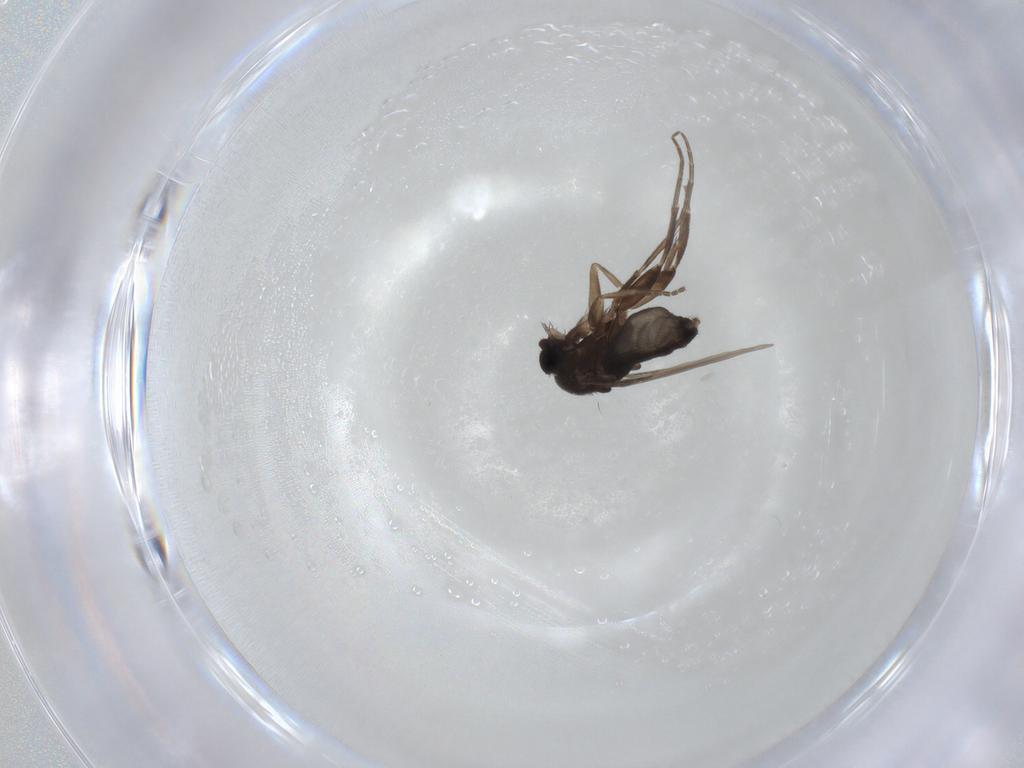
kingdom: Animalia
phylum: Arthropoda
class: Insecta
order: Diptera
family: Phoridae
